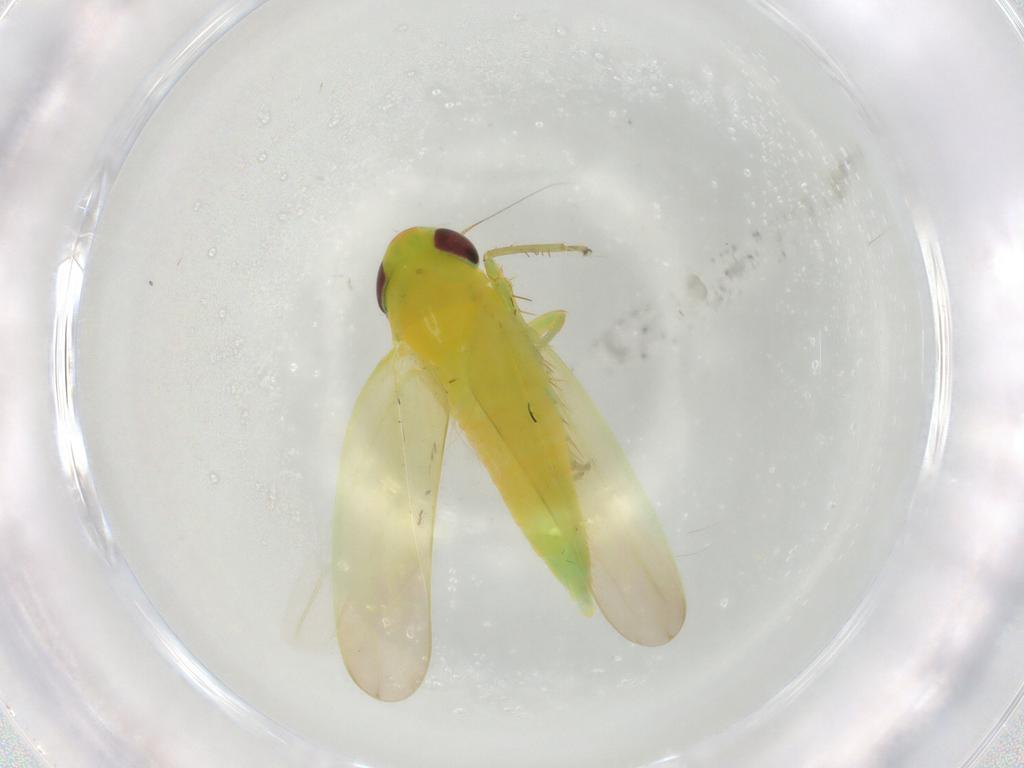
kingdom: Animalia
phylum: Arthropoda
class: Insecta
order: Hemiptera
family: Cicadellidae
